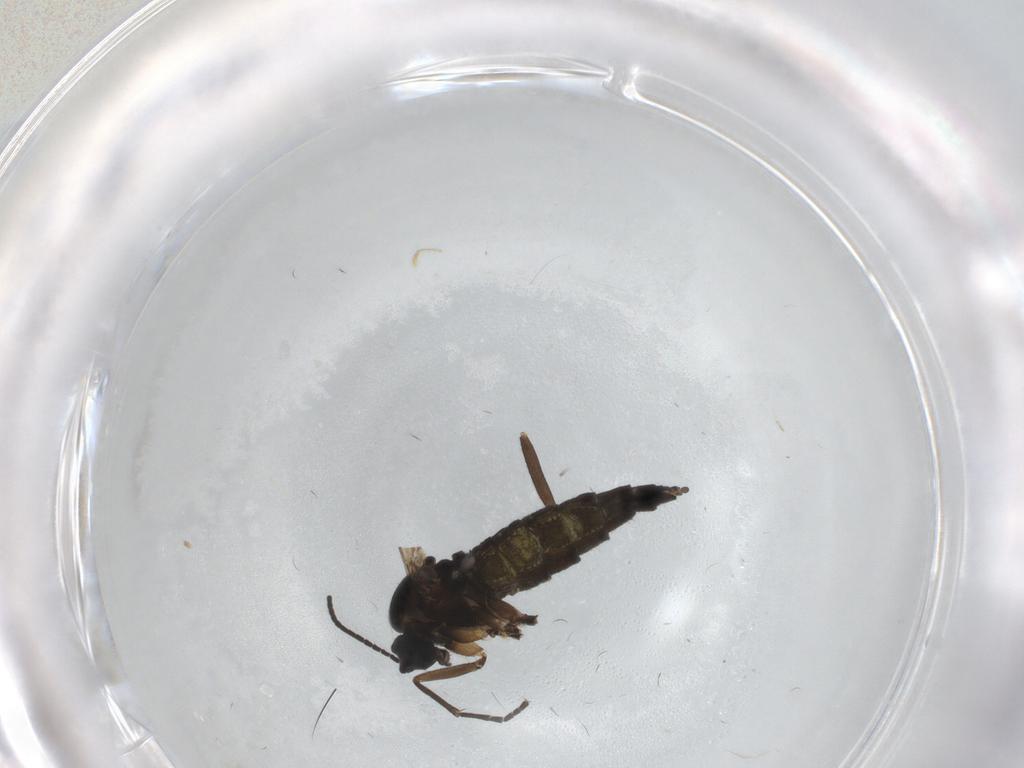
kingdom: Animalia
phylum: Arthropoda
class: Insecta
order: Diptera
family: Sciaridae
